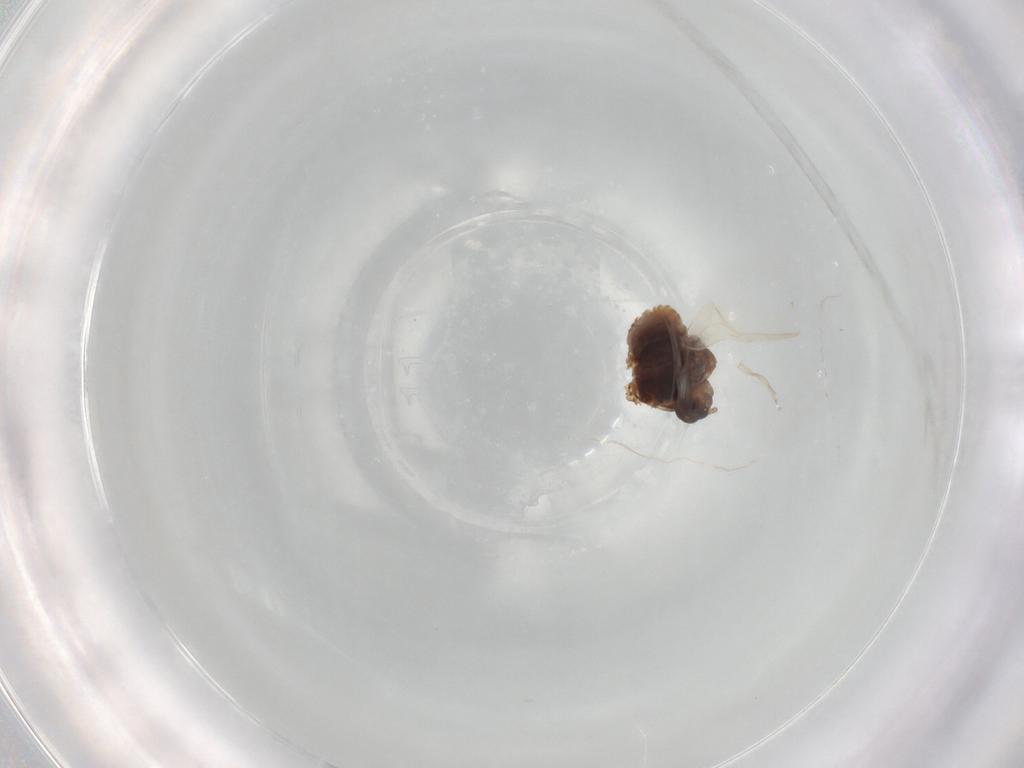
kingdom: Animalia
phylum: Arthropoda
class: Insecta
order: Hemiptera
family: Adelgidae
